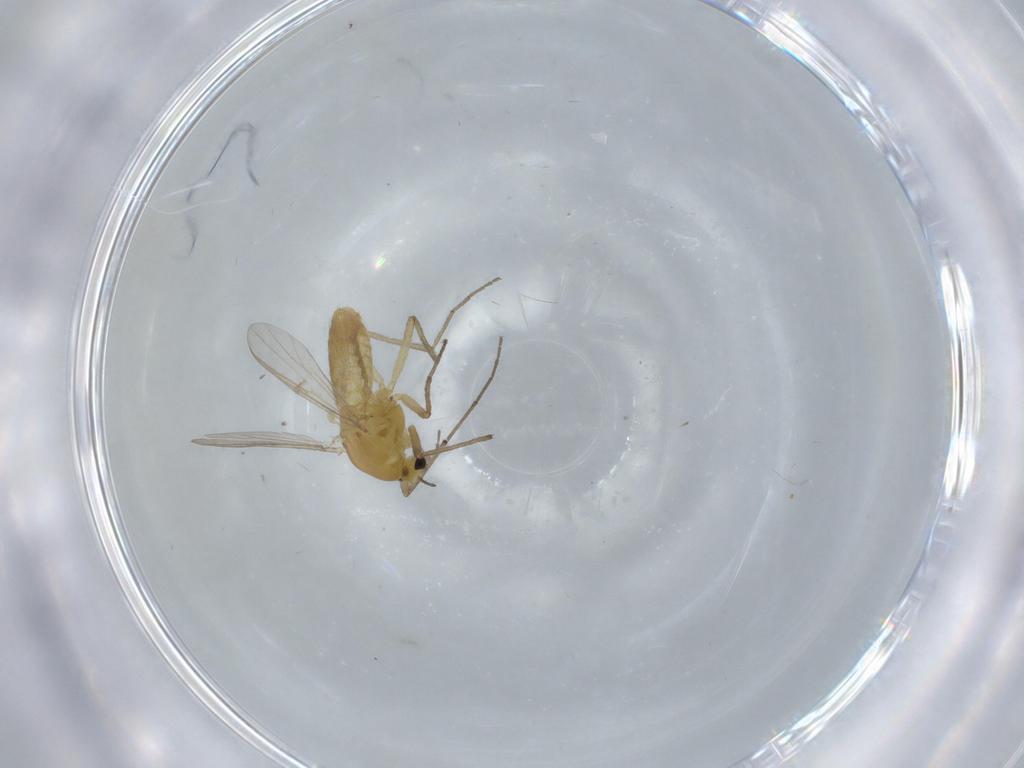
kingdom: Animalia
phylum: Arthropoda
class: Insecta
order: Diptera
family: Chironomidae
